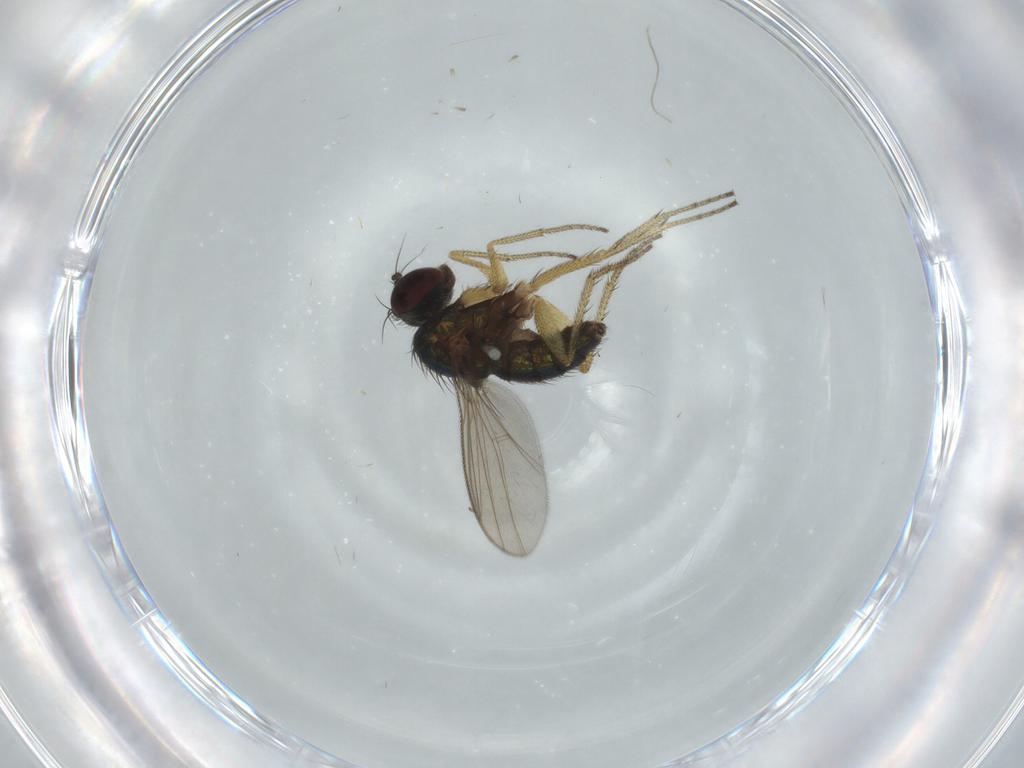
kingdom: Animalia
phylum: Arthropoda
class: Insecta
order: Diptera
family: Dolichopodidae
